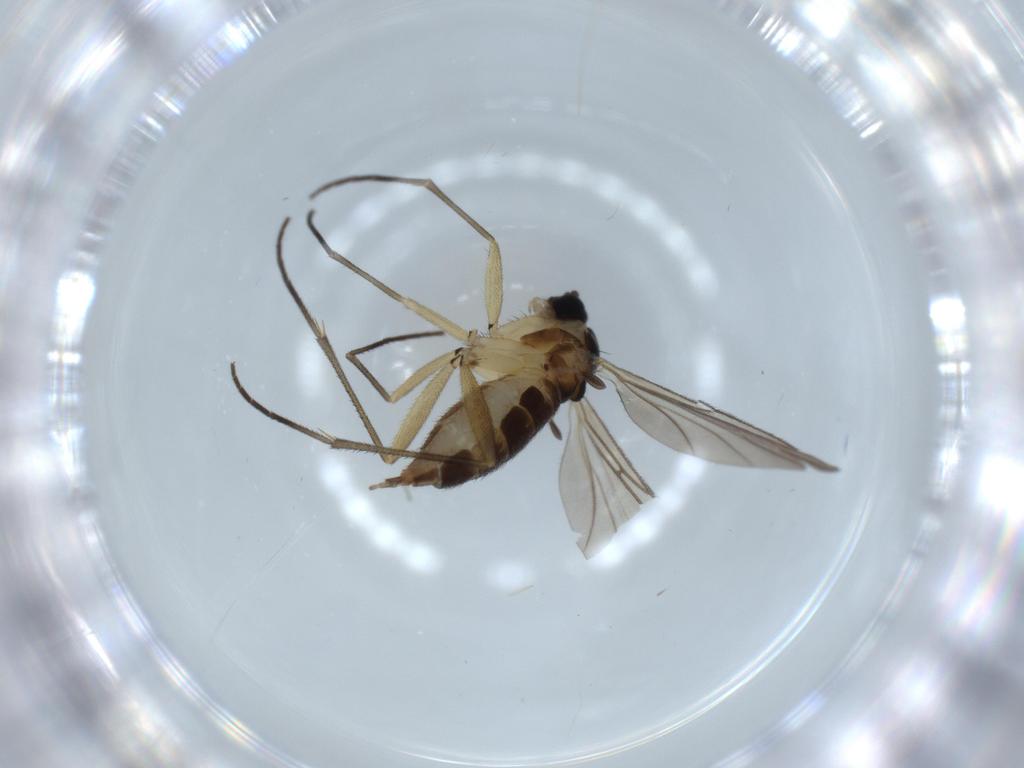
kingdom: Animalia
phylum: Arthropoda
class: Insecta
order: Diptera
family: Sciaridae
